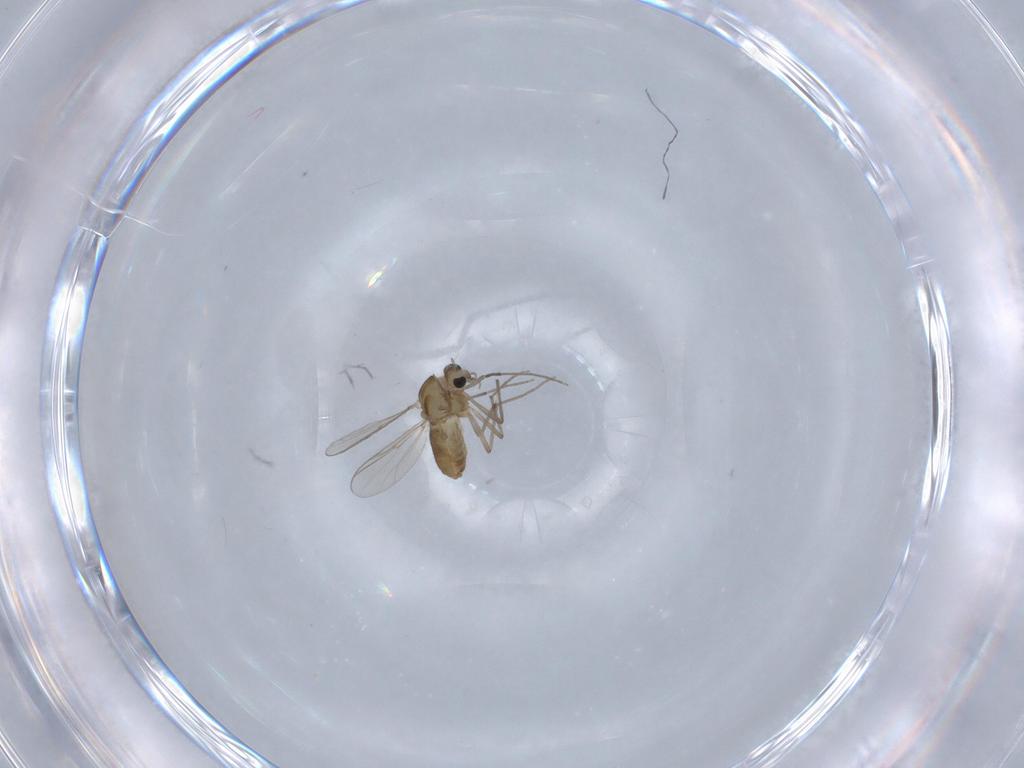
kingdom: Animalia
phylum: Arthropoda
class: Insecta
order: Diptera
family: Chironomidae
